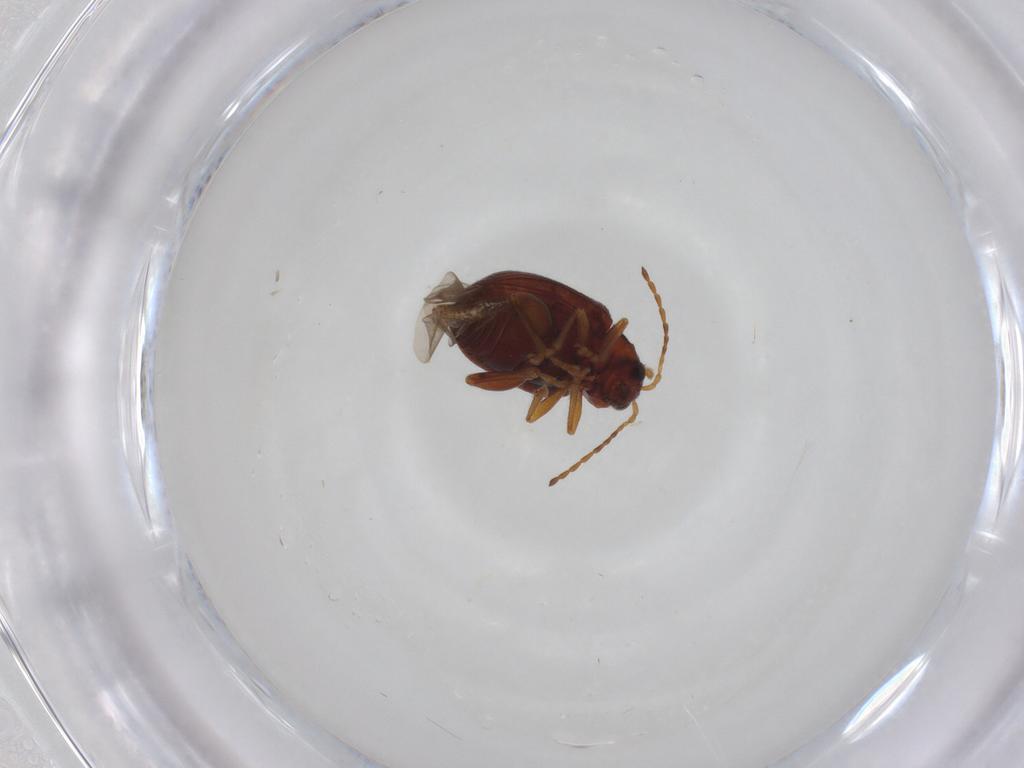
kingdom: Animalia
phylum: Arthropoda
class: Insecta
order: Coleoptera
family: Chrysomelidae
